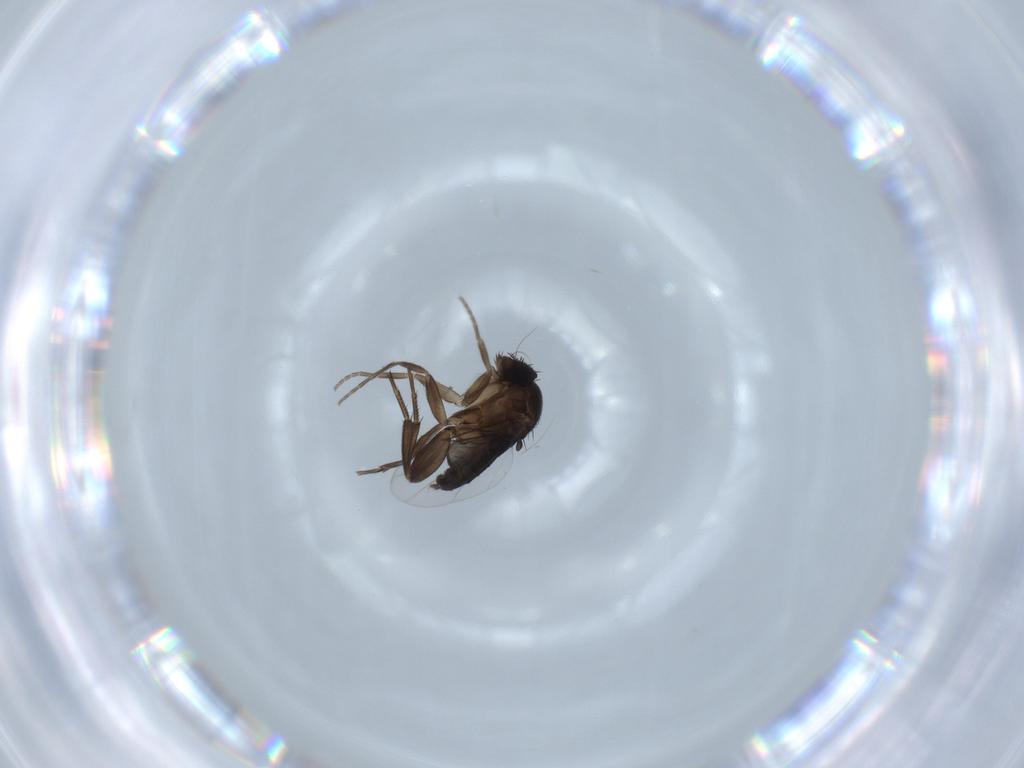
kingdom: Animalia
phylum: Arthropoda
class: Insecta
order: Diptera
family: Phoridae
